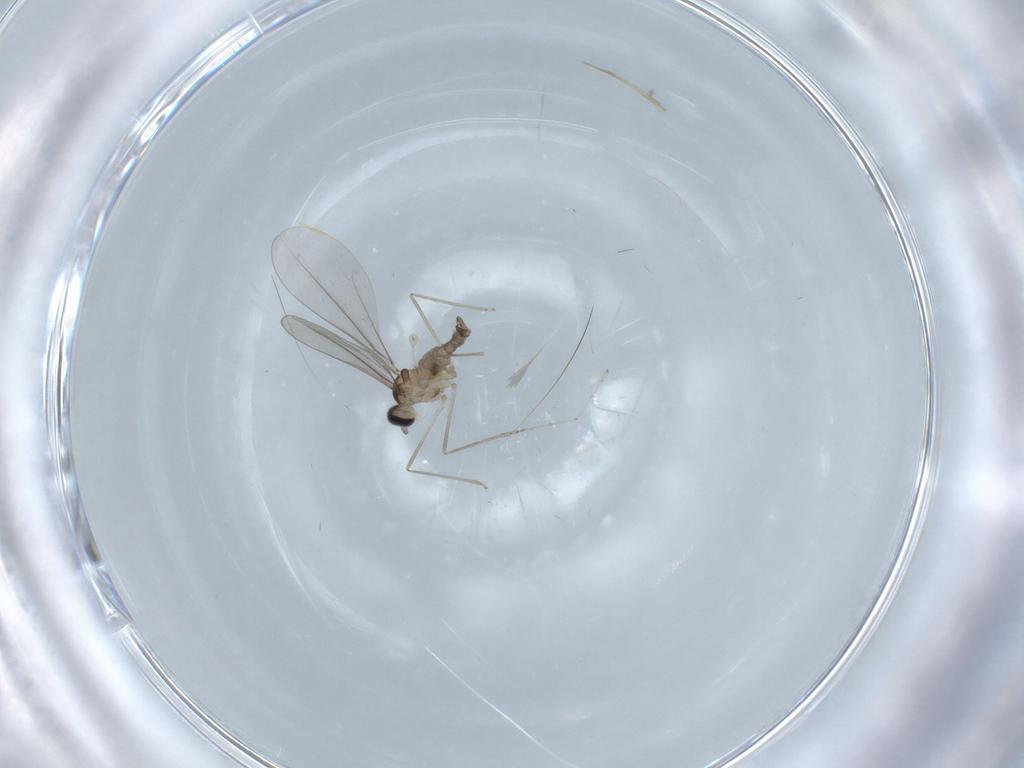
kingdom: Animalia
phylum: Arthropoda
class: Insecta
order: Diptera
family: Cecidomyiidae
